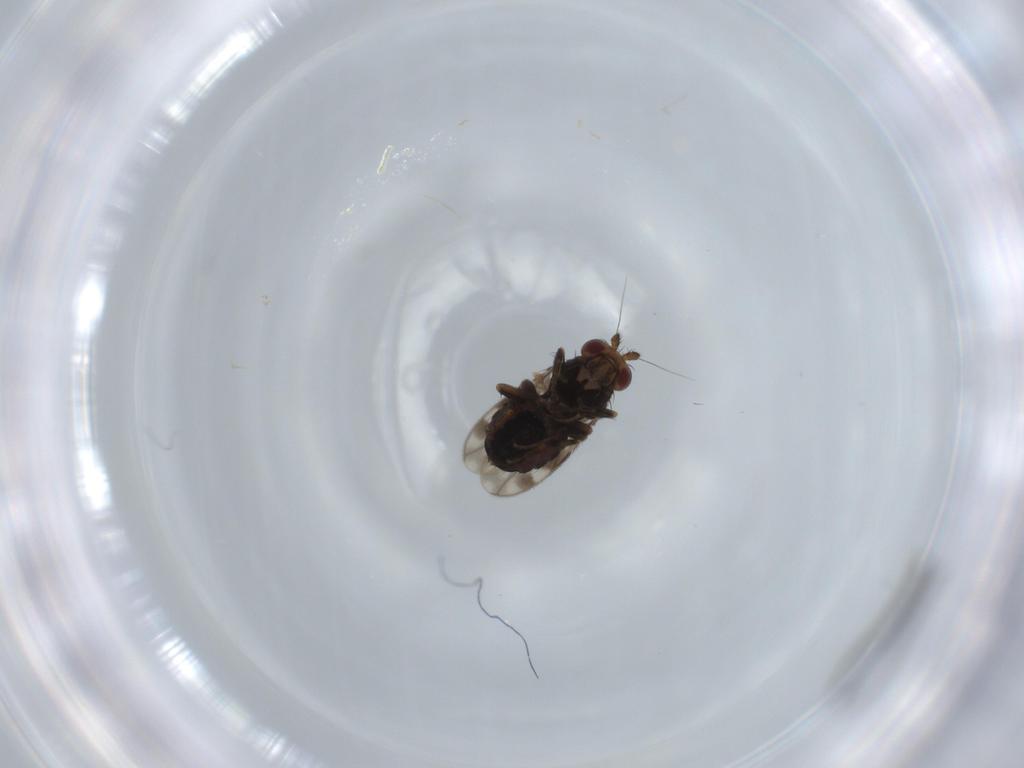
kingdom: Animalia
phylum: Arthropoda
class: Insecta
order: Diptera
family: Sphaeroceridae
